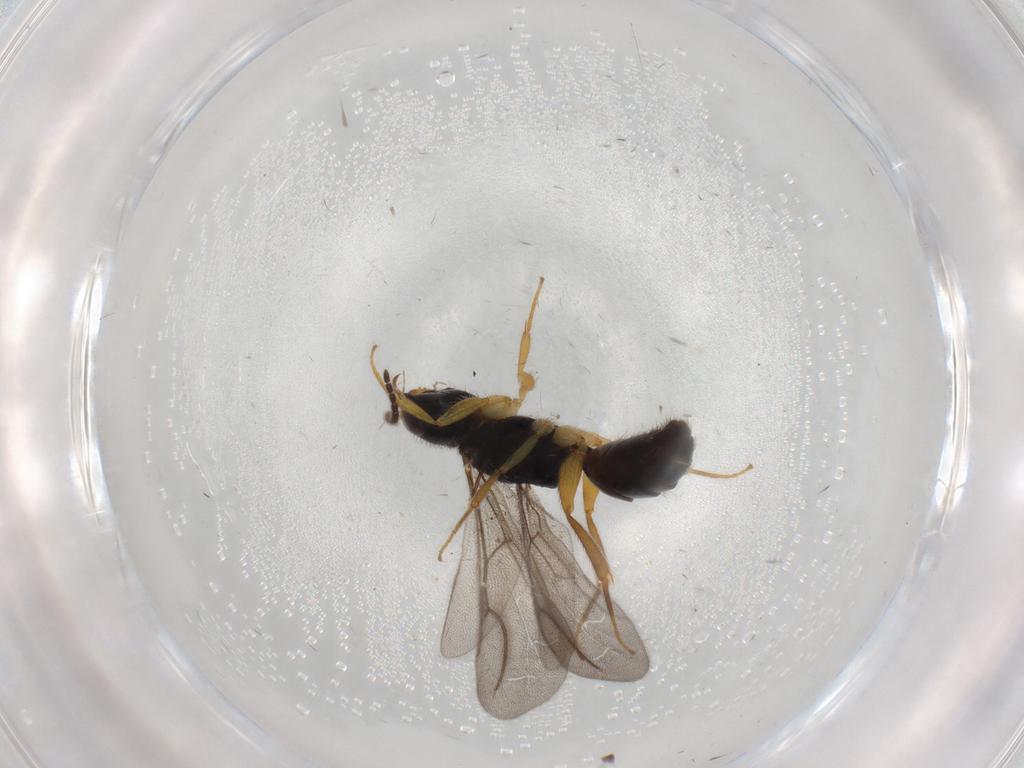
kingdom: Animalia
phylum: Arthropoda
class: Insecta
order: Hymenoptera
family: Bethylidae
